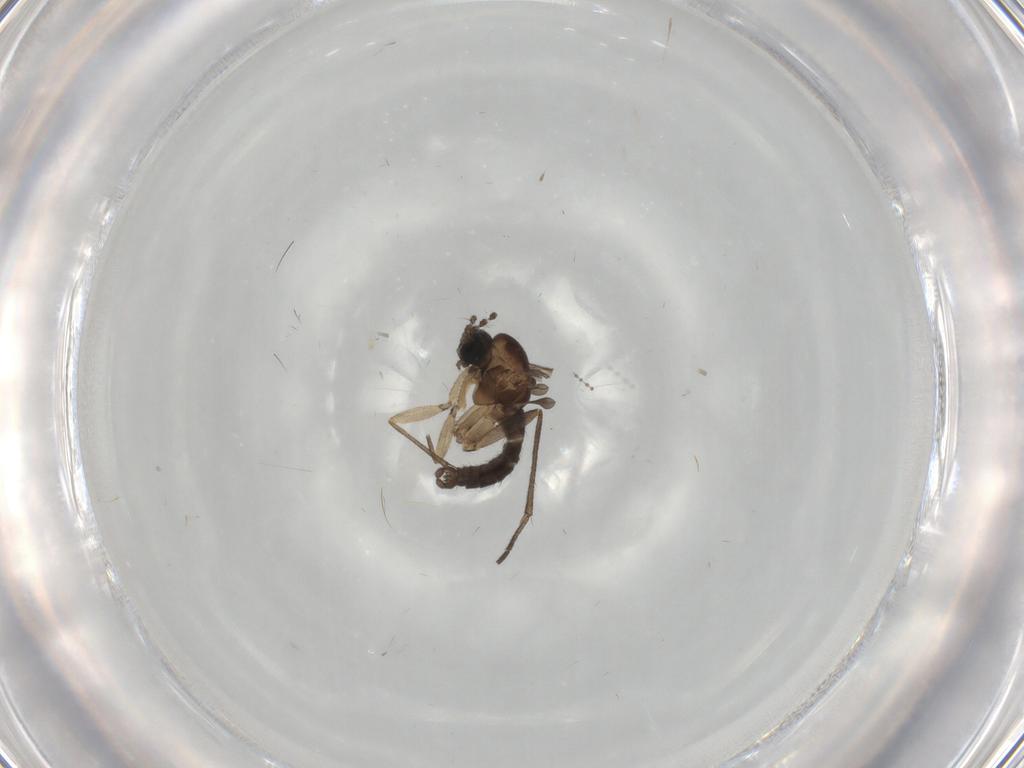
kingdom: Animalia
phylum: Arthropoda
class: Insecta
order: Diptera
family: Sciaridae
